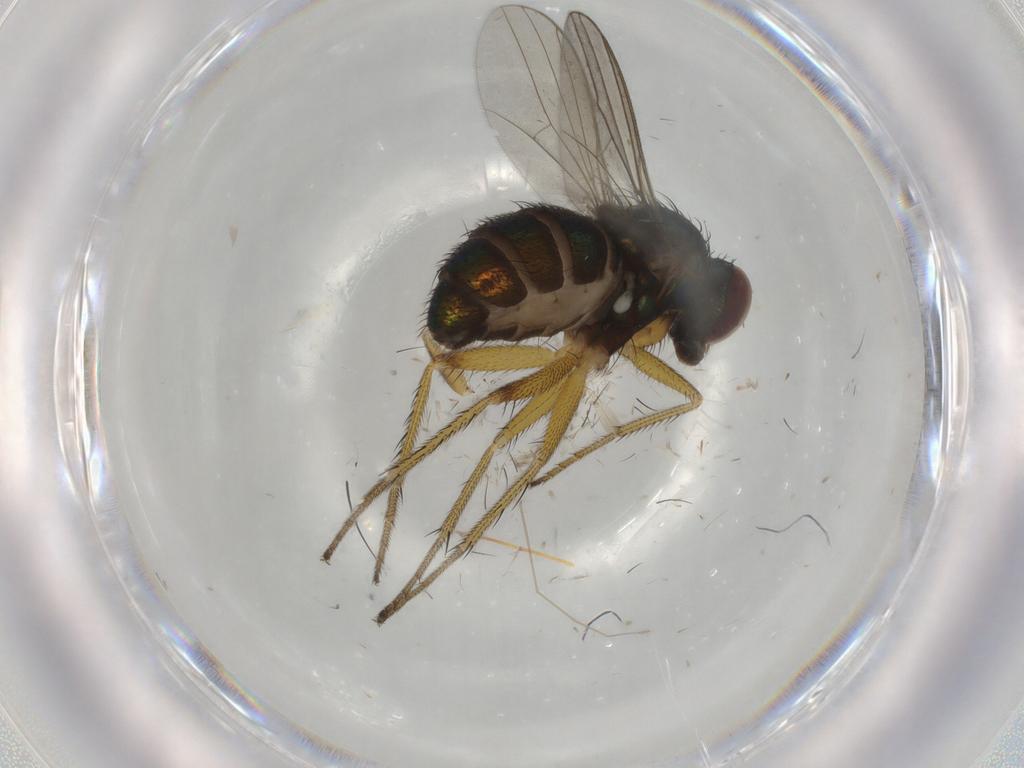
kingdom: Animalia
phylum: Arthropoda
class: Insecta
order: Diptera
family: Dolichopodidae
